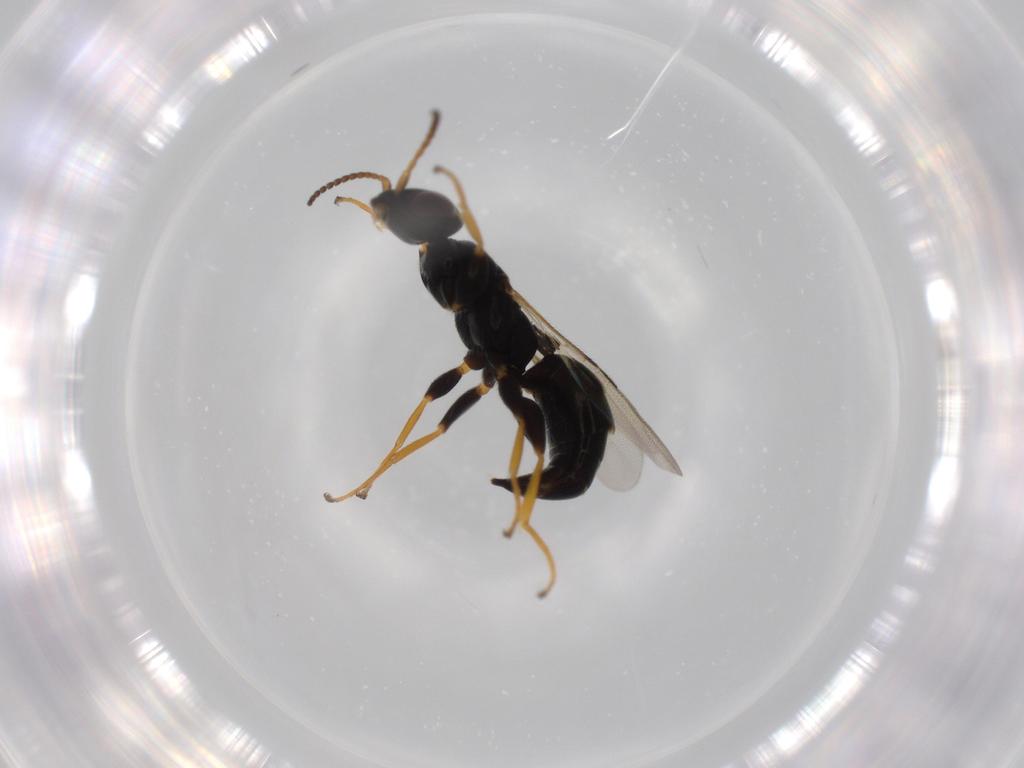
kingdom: Animalia
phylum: Arthropoda
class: Insecta
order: Hymenoptera
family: Bethylidae
